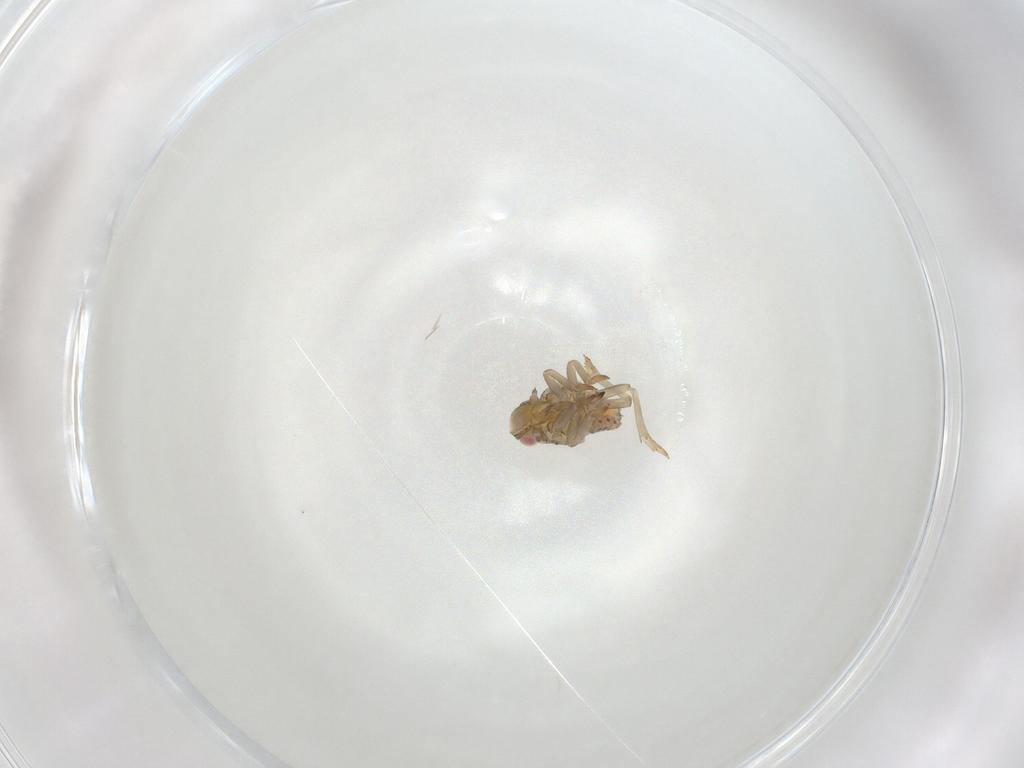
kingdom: Animalia
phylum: Arthropoda
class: Insecta
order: Hemiptera
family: Tropiduchidae
